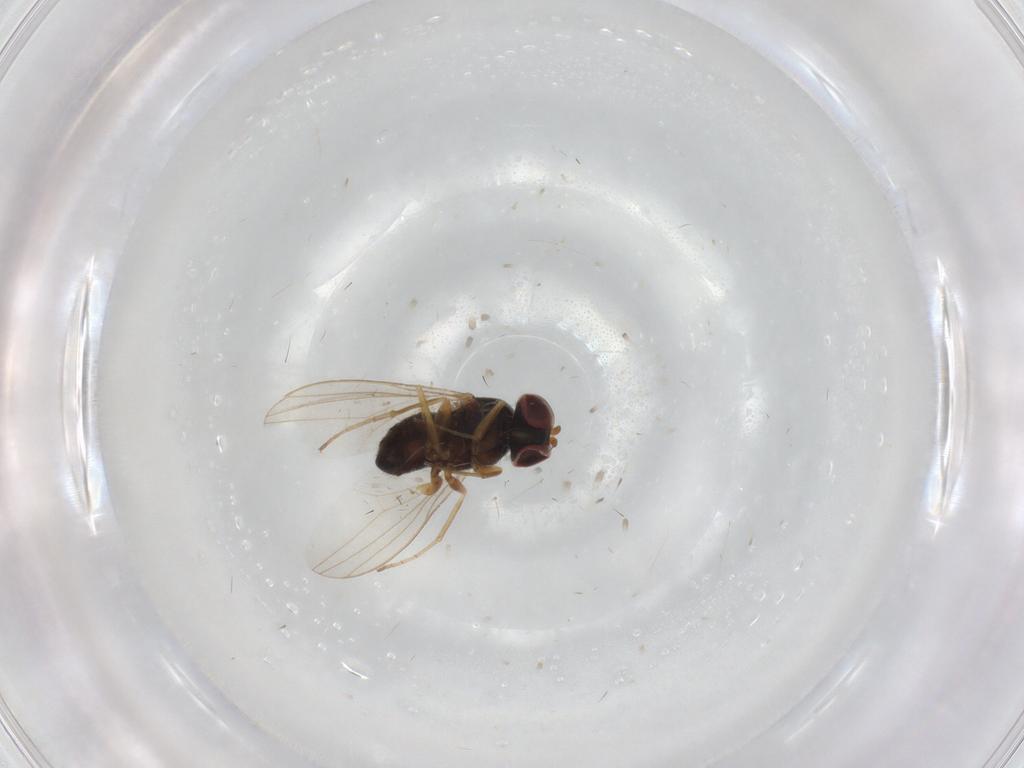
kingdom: Animalia
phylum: Arthropoda
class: Insecta
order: Diptera
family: Dolichopodidae
